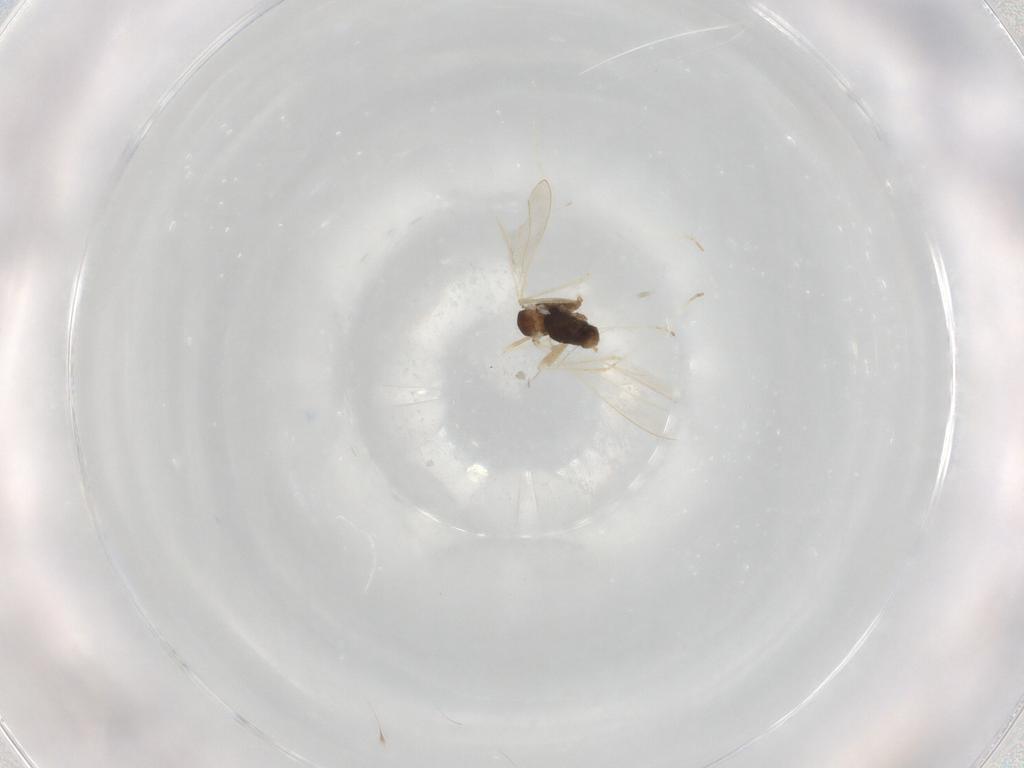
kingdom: Animalia
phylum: Arthropoda
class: Insecta
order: Diptera
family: Cecidomyiidae
